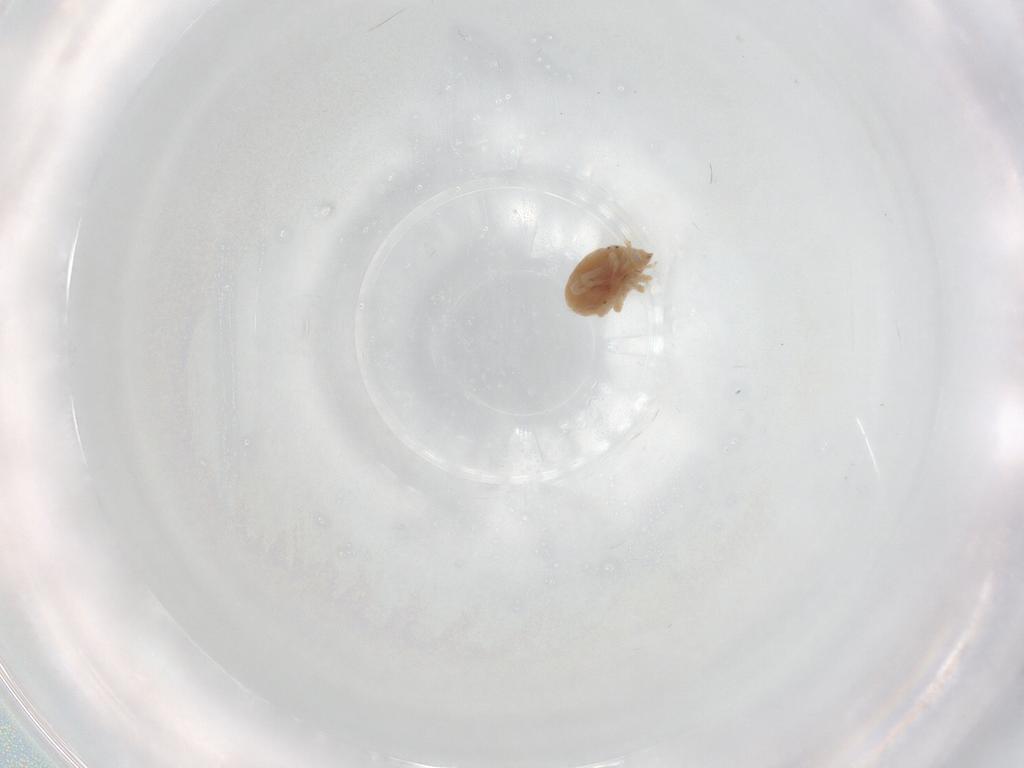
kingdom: Animalia
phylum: Arthropoda
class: Arachnida
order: Trombidiformes
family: Bdellidae
